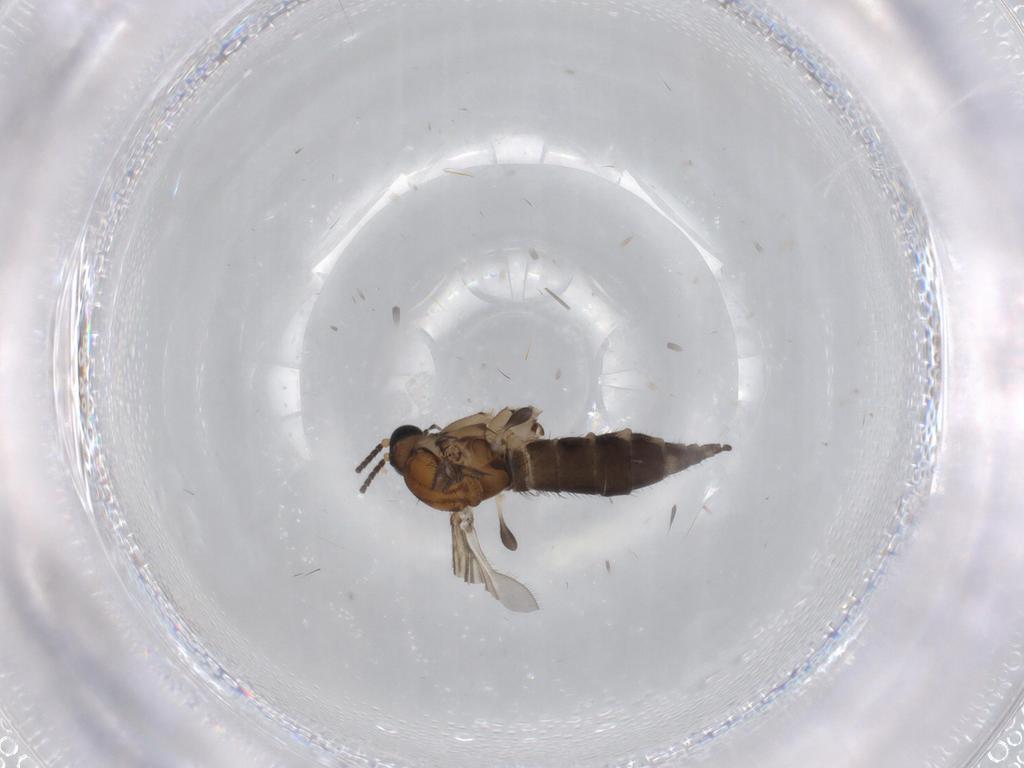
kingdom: Animalia
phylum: Arthropoda
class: Insecta
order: Diptera
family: Sciaridae
